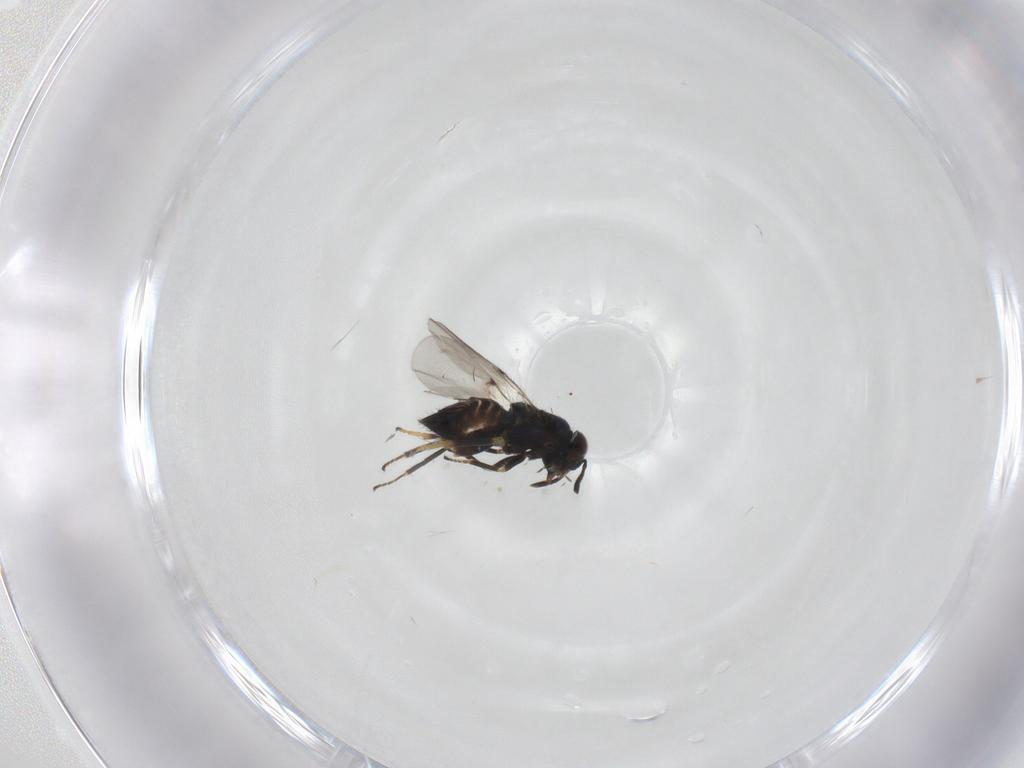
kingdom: Animalia
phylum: Arthropoda
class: Insecta
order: Hymenoptera
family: Encyrtidae
